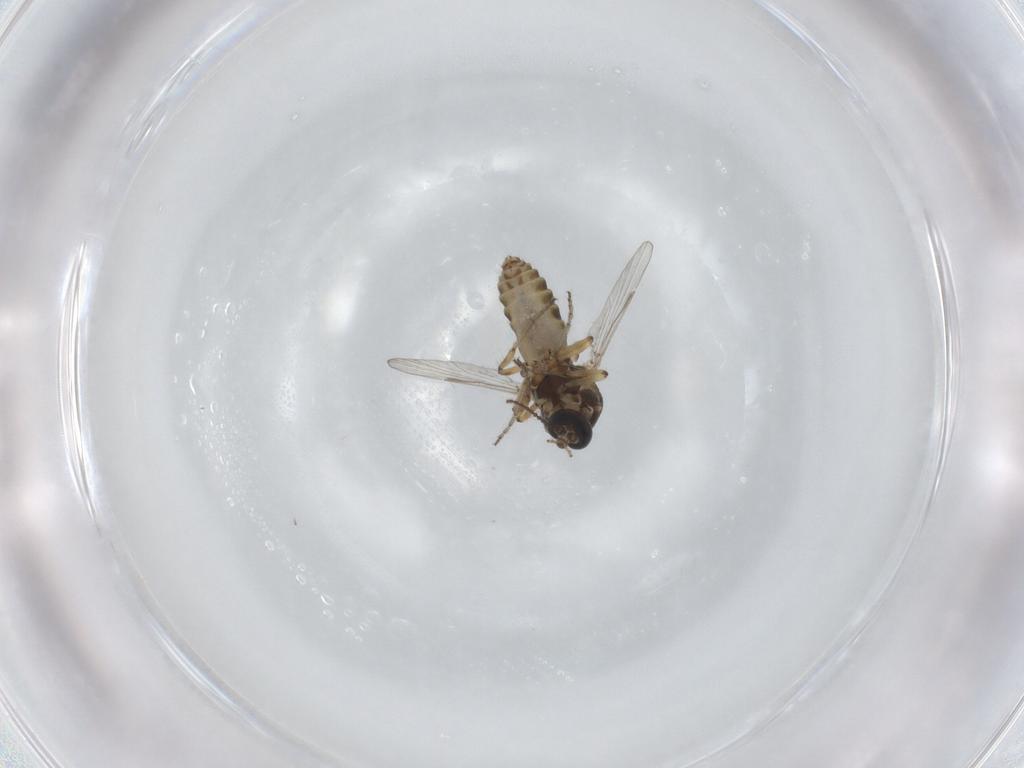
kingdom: Animalia
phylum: Arthropoda
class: Insecta
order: Diptera
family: Ceratopogonidae
